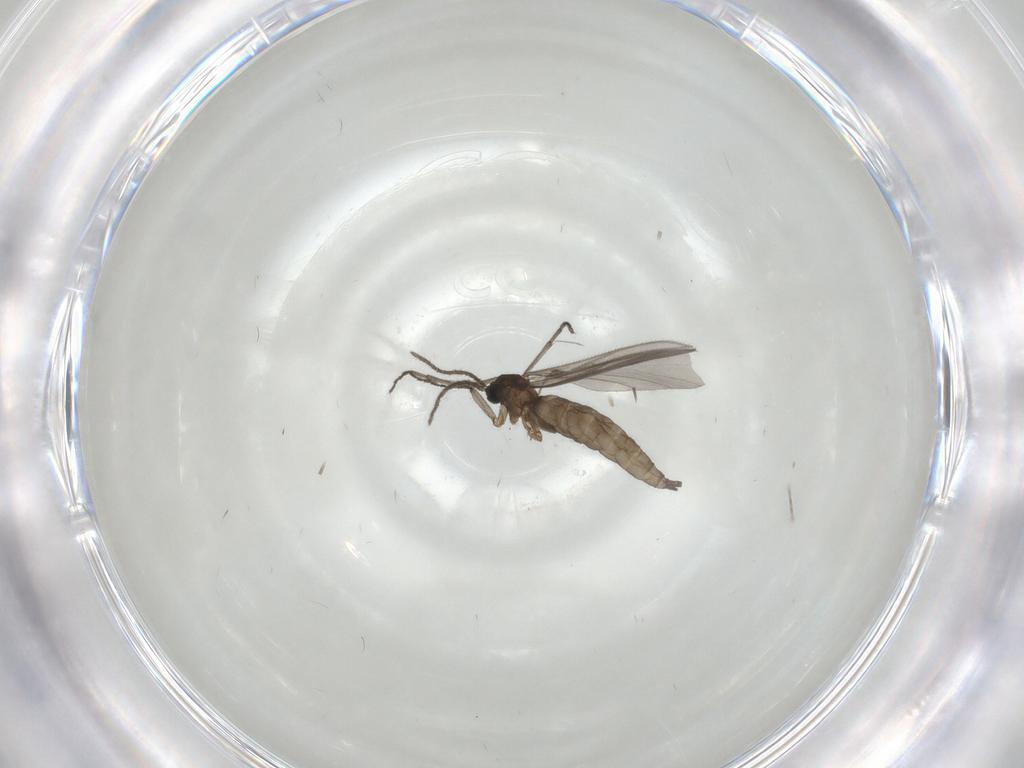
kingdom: Animalia
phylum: Arthropoda
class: Insecta
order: Diptera
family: Sciaridae
